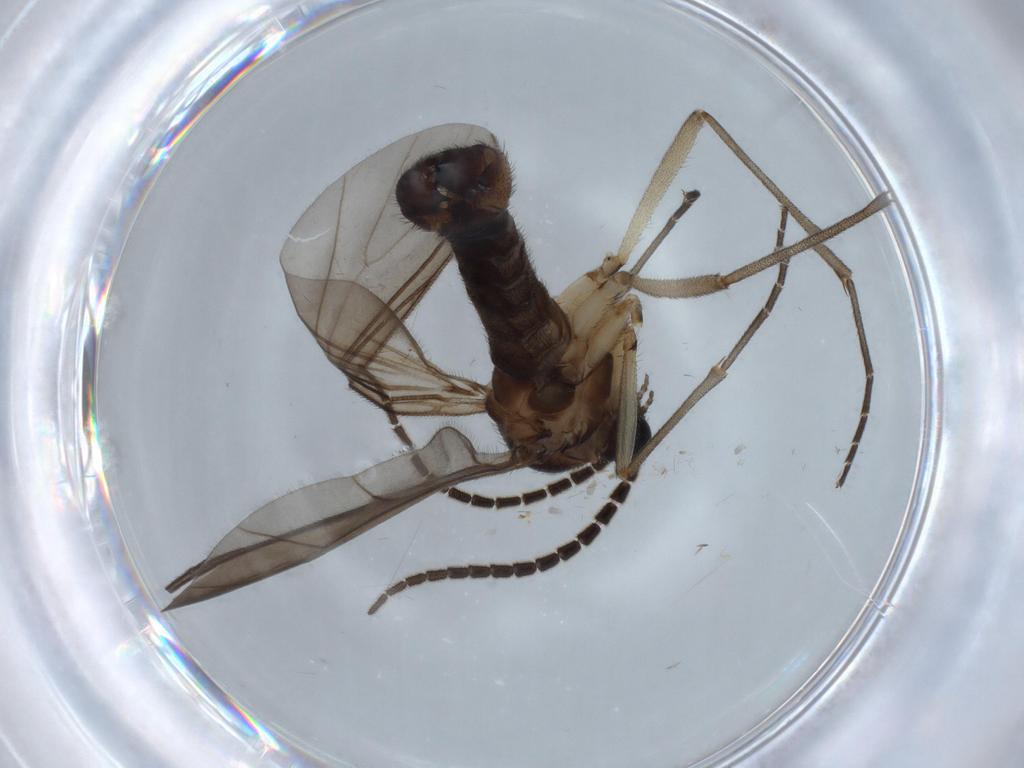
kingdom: Animalia
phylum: Arthropoda
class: Insecta
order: Diptera
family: Sciaridae
